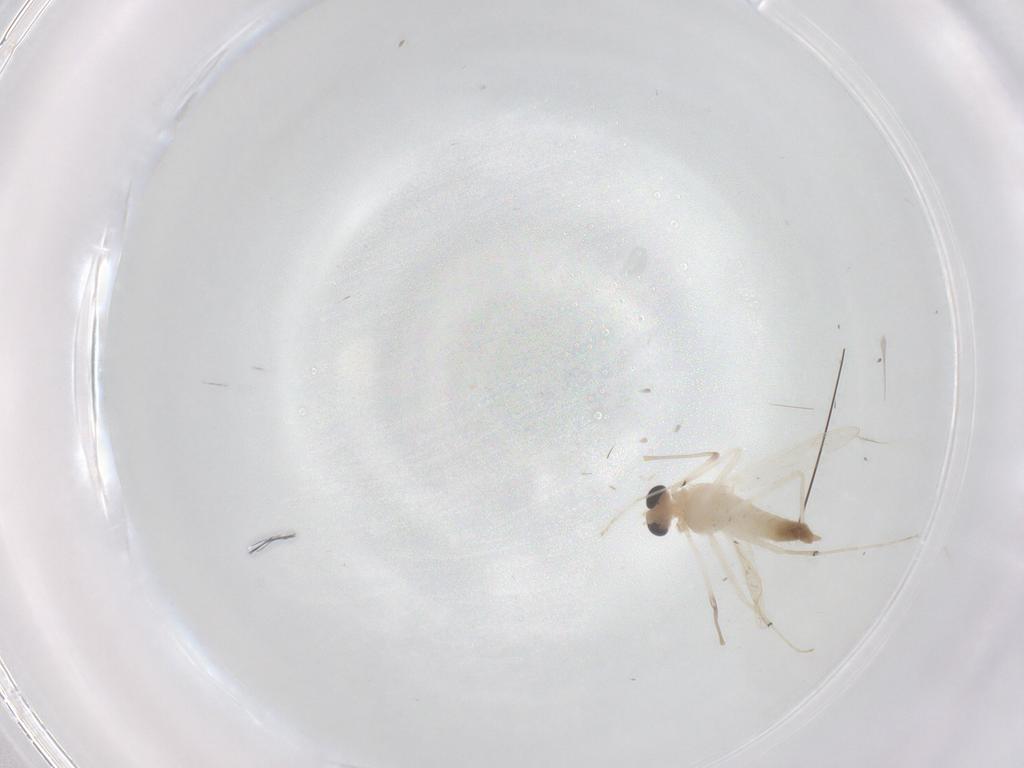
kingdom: Animalia
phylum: Arthropoda
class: Insecta
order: Diptera
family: Chironomidae
